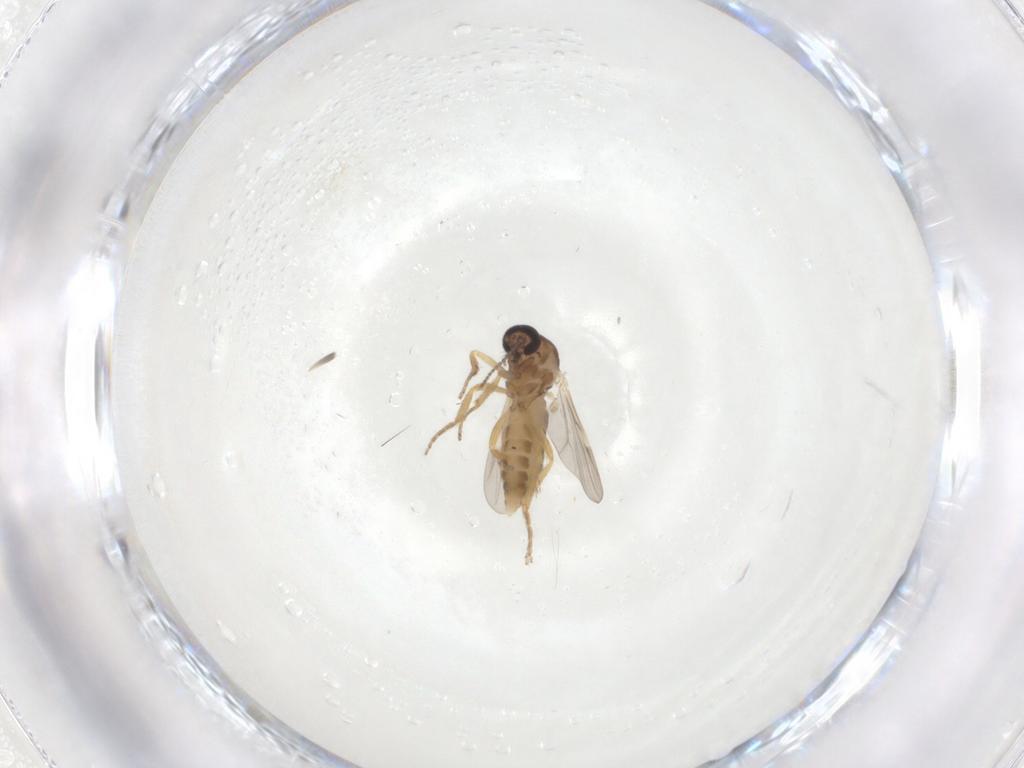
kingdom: Animalia
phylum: Arthropoda
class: Insecta
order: Diptera
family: Ceratopogonidae
